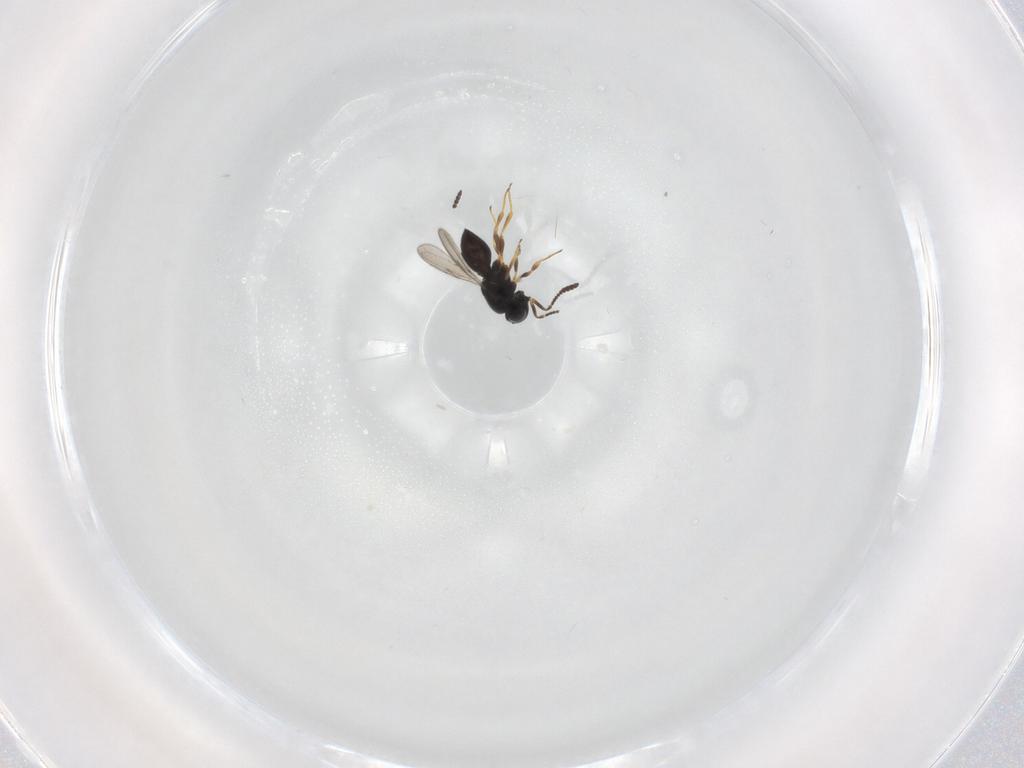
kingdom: Animalia
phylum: Arthropoda
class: Insecta
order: Hymenoptera
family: Scelionidae
